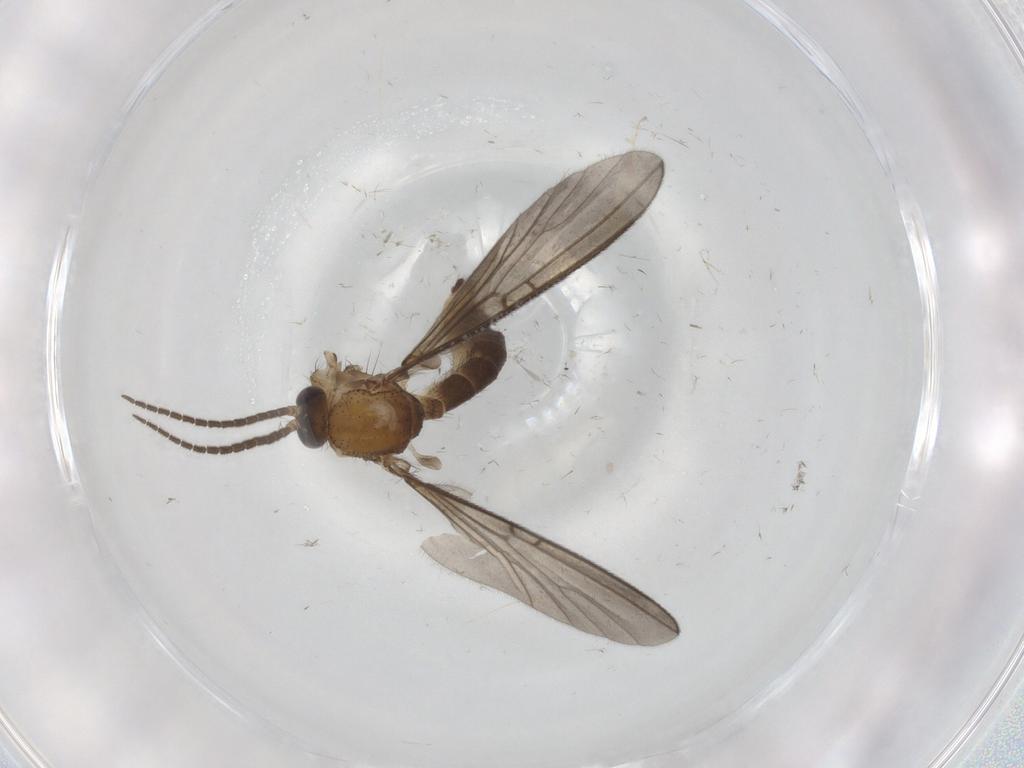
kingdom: Animalia
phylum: Arthropoda
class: Insecta
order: Diptera
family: Mycetophilidae
